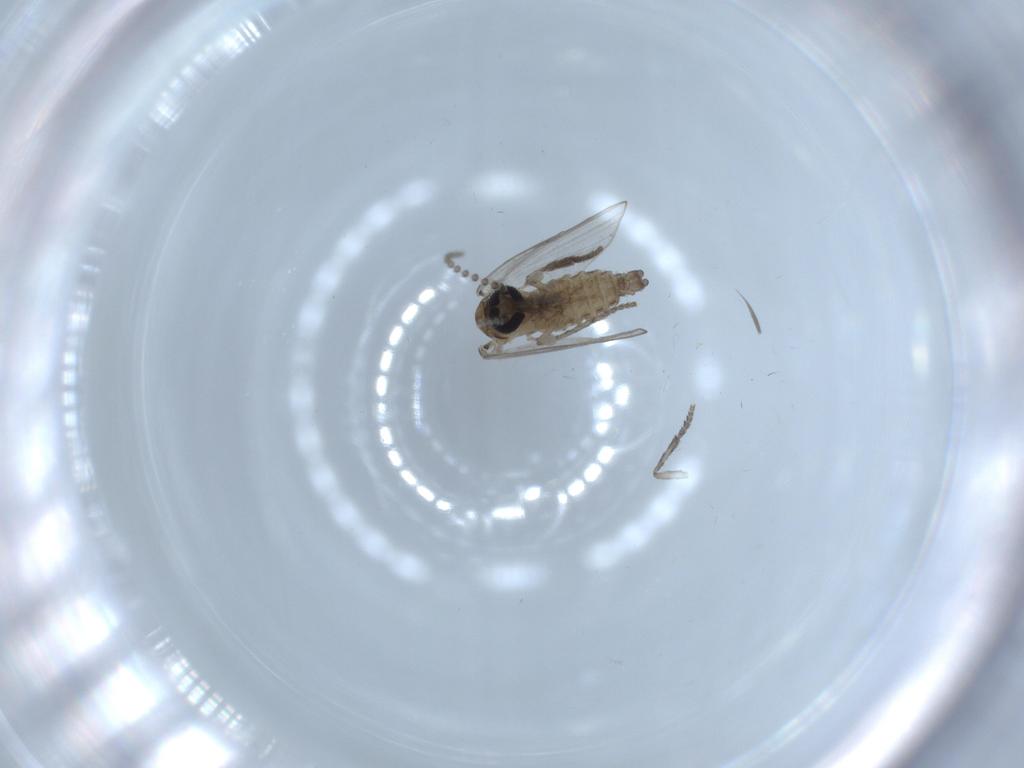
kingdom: Animalia
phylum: Arthropoda
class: Insecta
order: Diptera
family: Psychodidae
